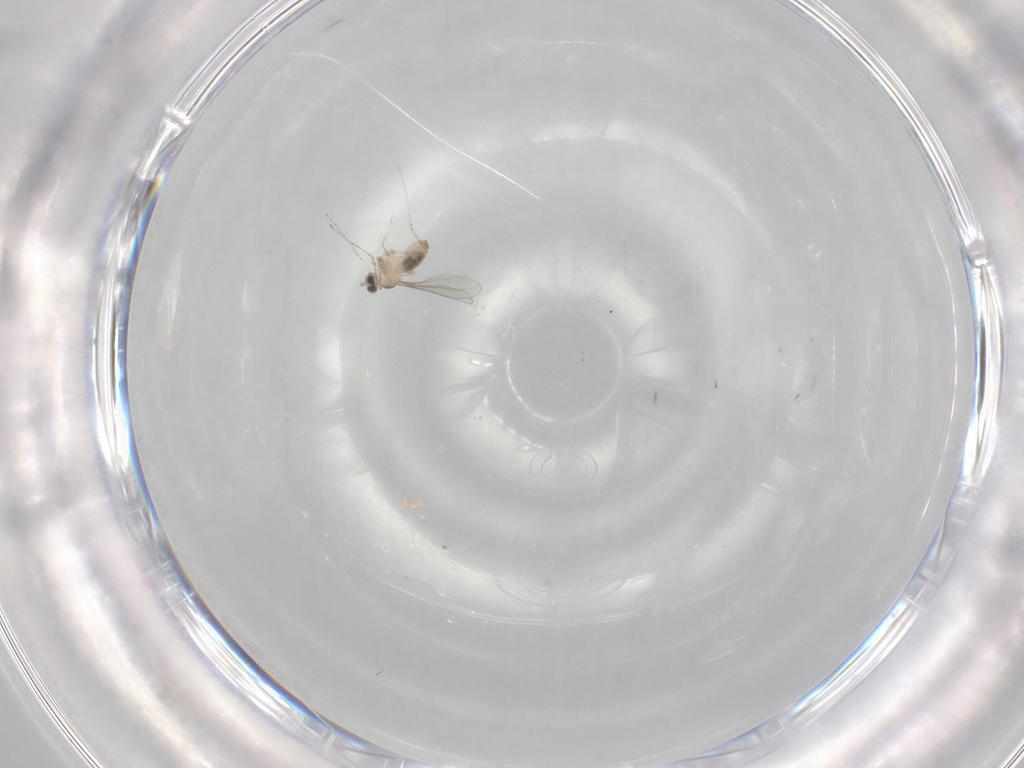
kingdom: Animalia
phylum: Arthropoda
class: Insecta
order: Diptera
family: Cecidomyiidae
